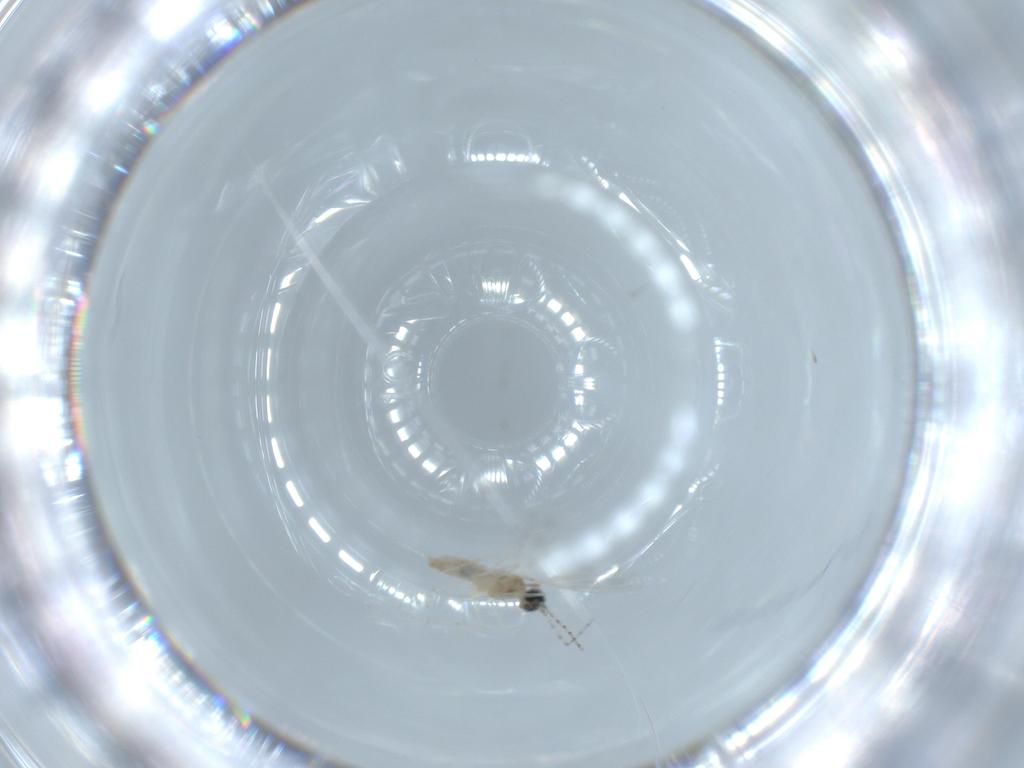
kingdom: Animalia
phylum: Arthropoda
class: Insecta
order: Diptera
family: Cecidomyiidae
